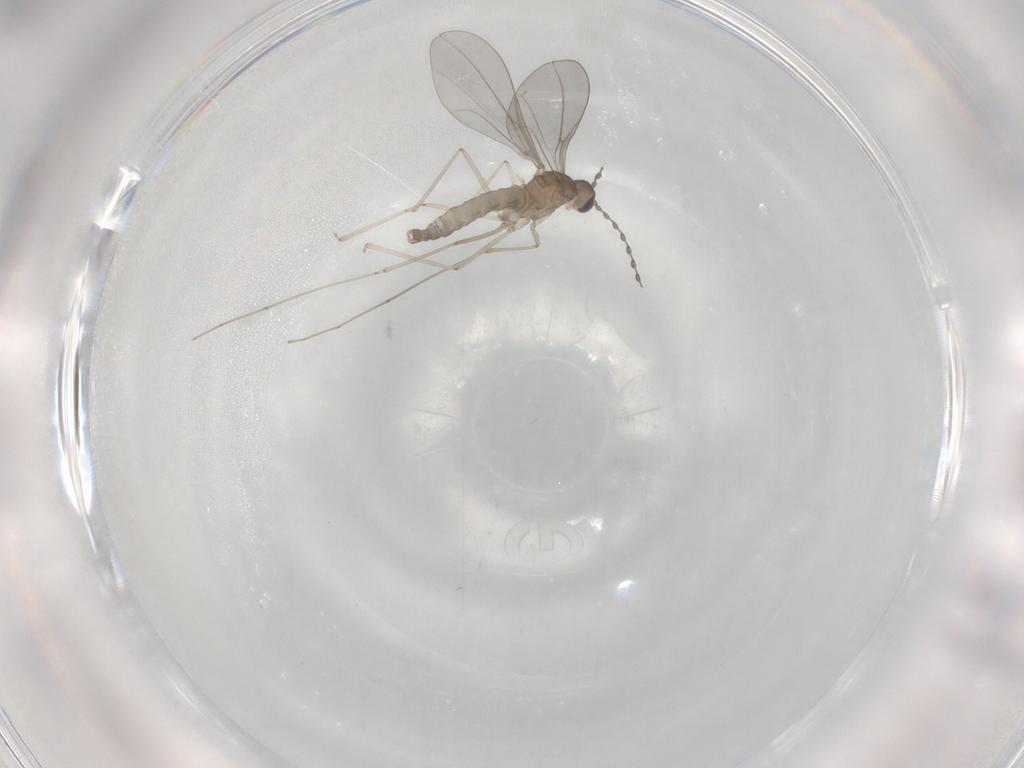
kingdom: Animalia
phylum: Arthropoda
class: Insecta
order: Diptera
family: Cecidomyiidae
